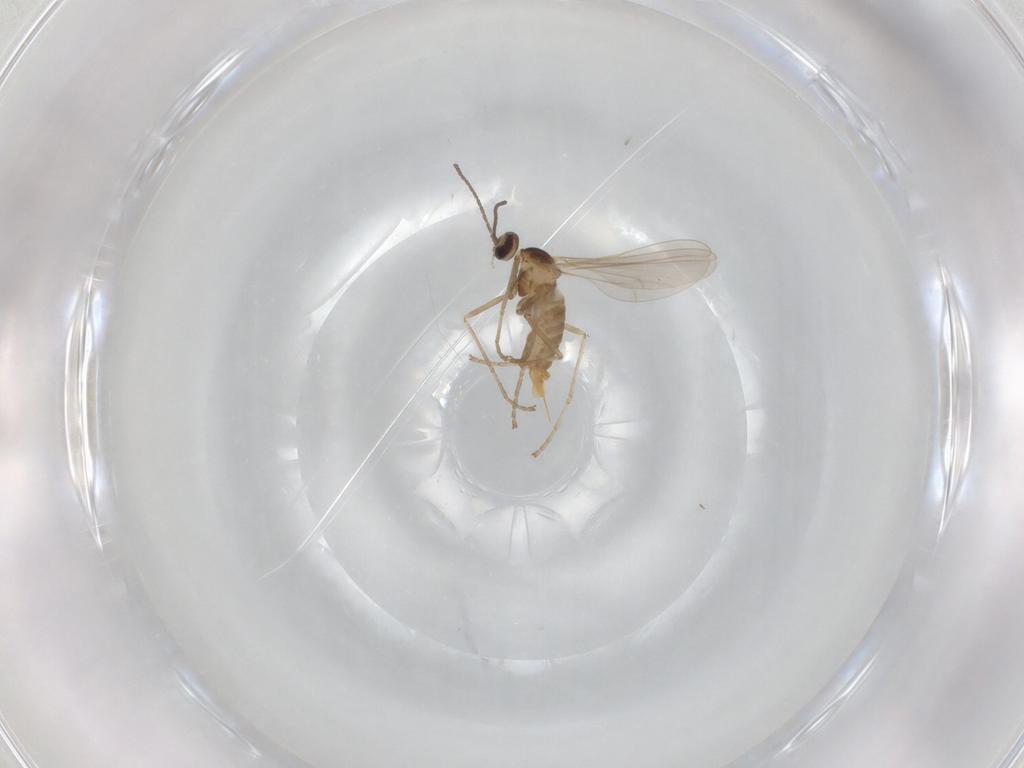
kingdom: Animalia
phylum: Arthropoda
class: Insecta
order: Diptera
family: Cecidomyiidae
